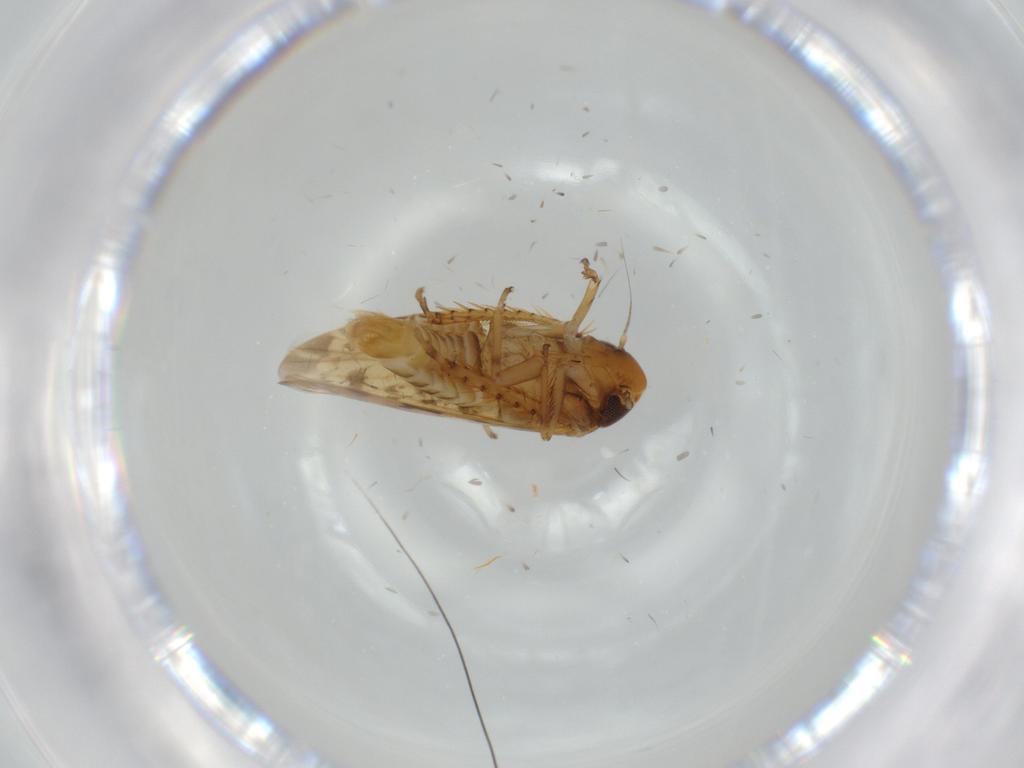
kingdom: Animalia
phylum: Arthropoda
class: Insecta
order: Hemiptera
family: Cicadellidae
